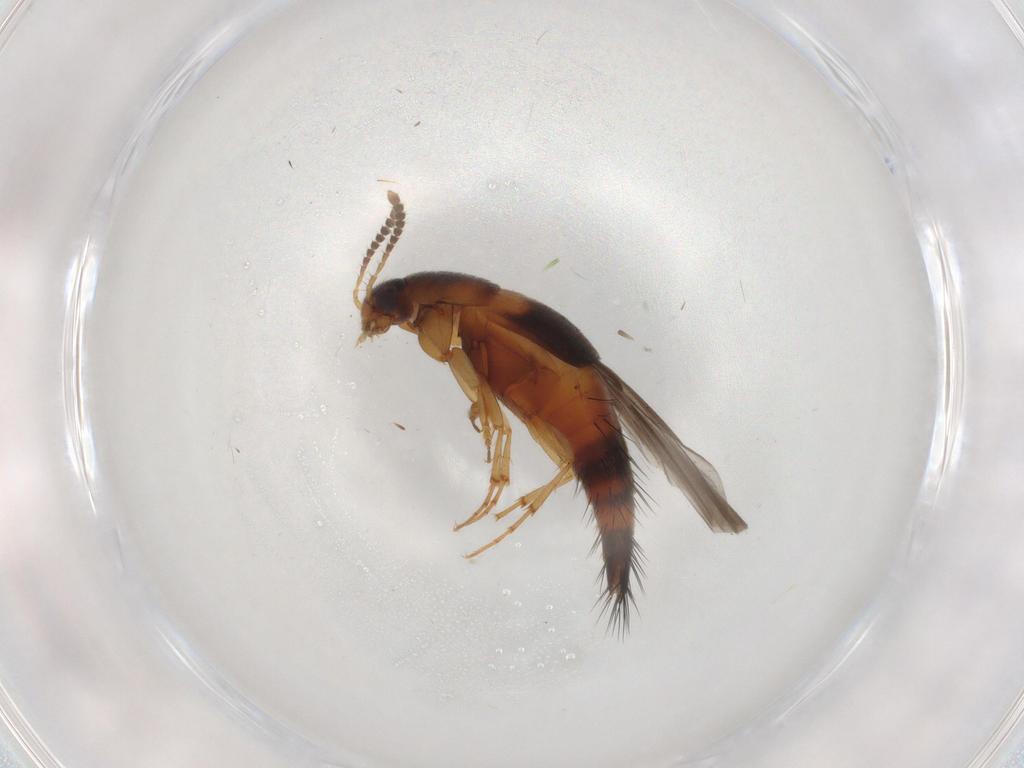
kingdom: Animalia
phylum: Arthropoda
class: Insecta
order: Coleoptera
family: Staphylinidae
